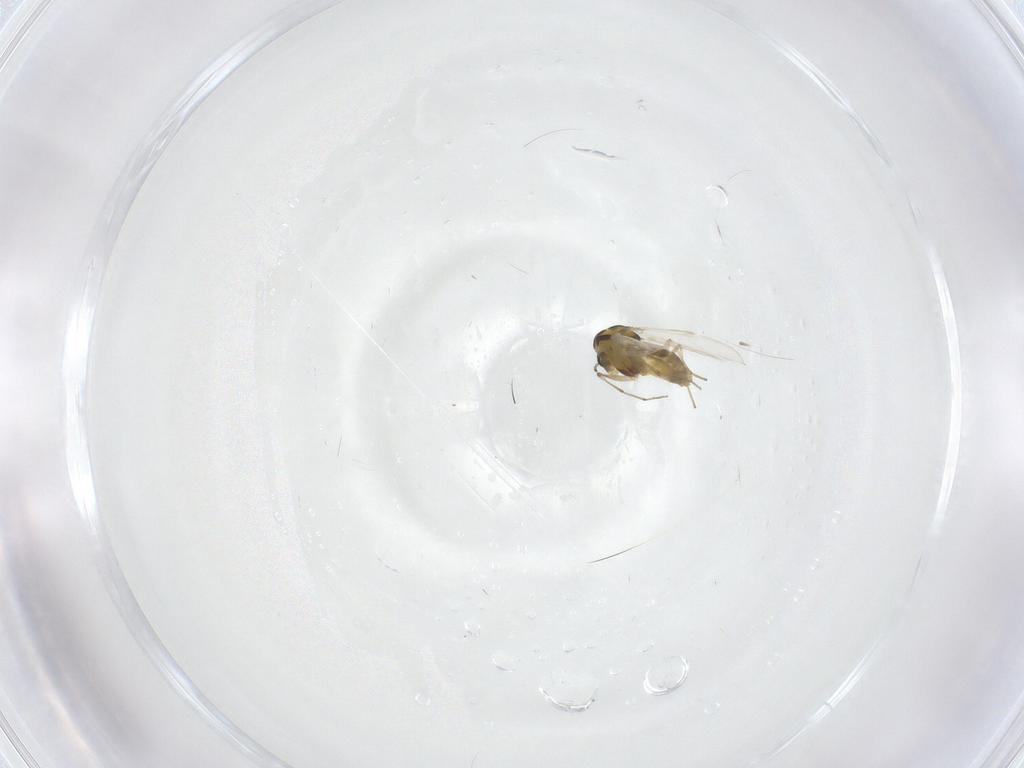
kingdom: Animalia
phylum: Arthropoda
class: Insecta
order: Diptera
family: Chironomidae
